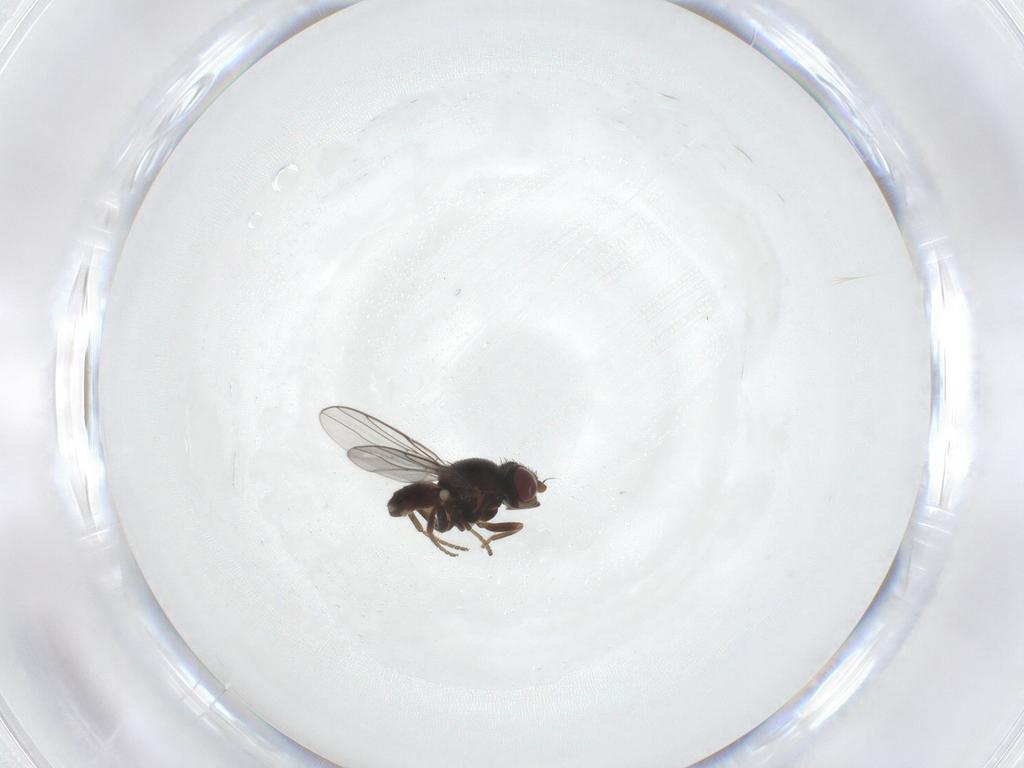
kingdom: Animalia
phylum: Arthropoda
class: Insecta
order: Diptera
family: Chloropidae
